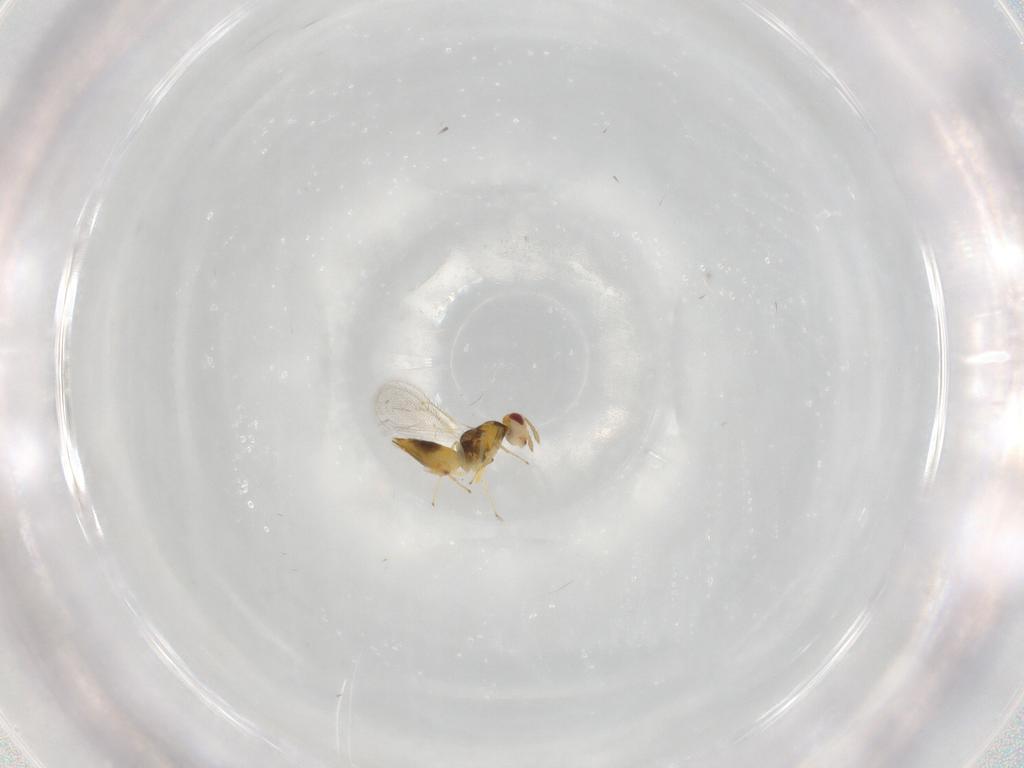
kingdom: Animalia
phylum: Arthropoda
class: Insecta
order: Hymenoptera
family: Eulophidae
